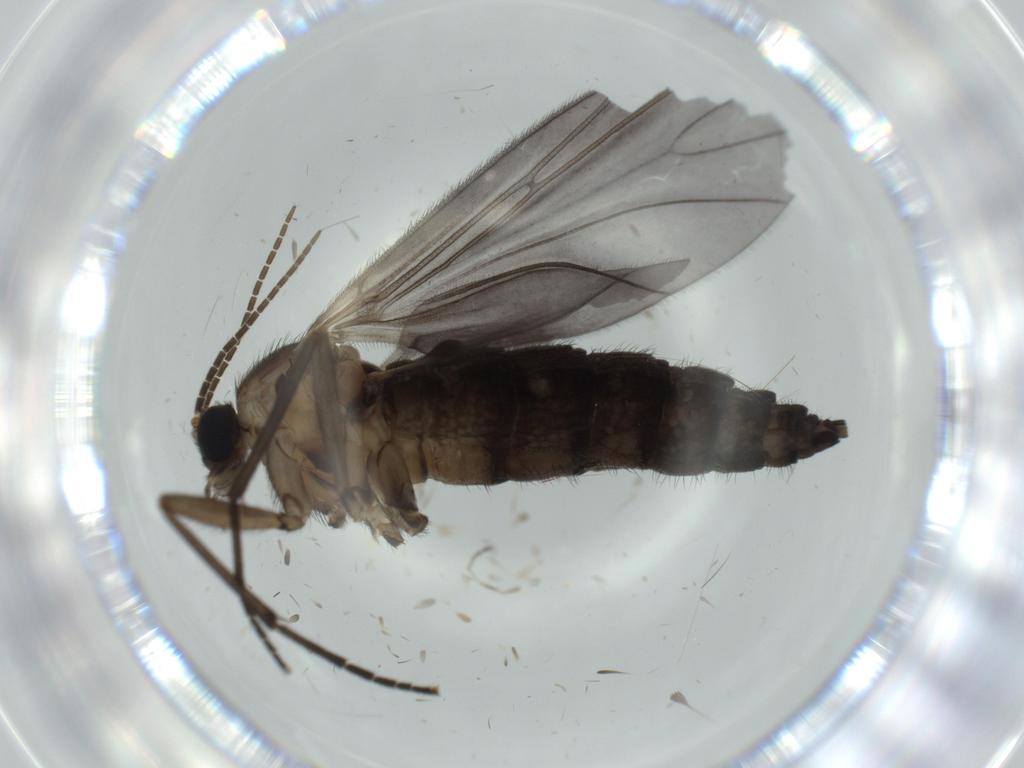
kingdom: Animalia
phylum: Arthropoda
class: Insecta
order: Diptera
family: Sciaridae
